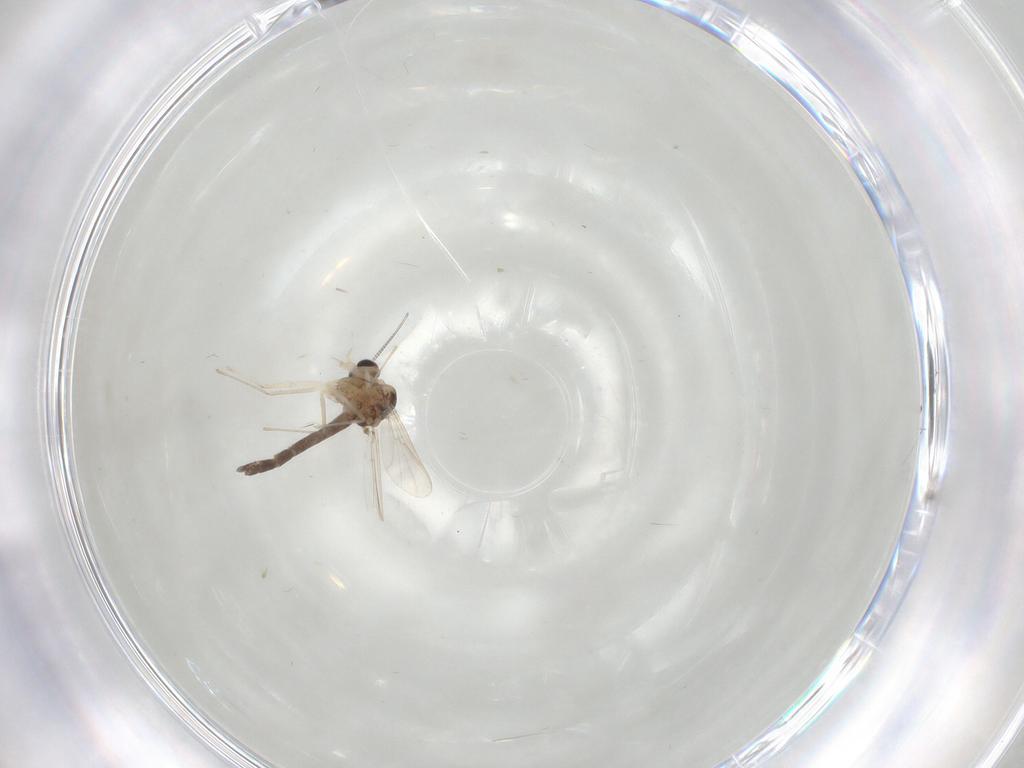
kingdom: Animalia
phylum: Arthropoda
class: Insecta
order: Diptera
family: Chironomidae
